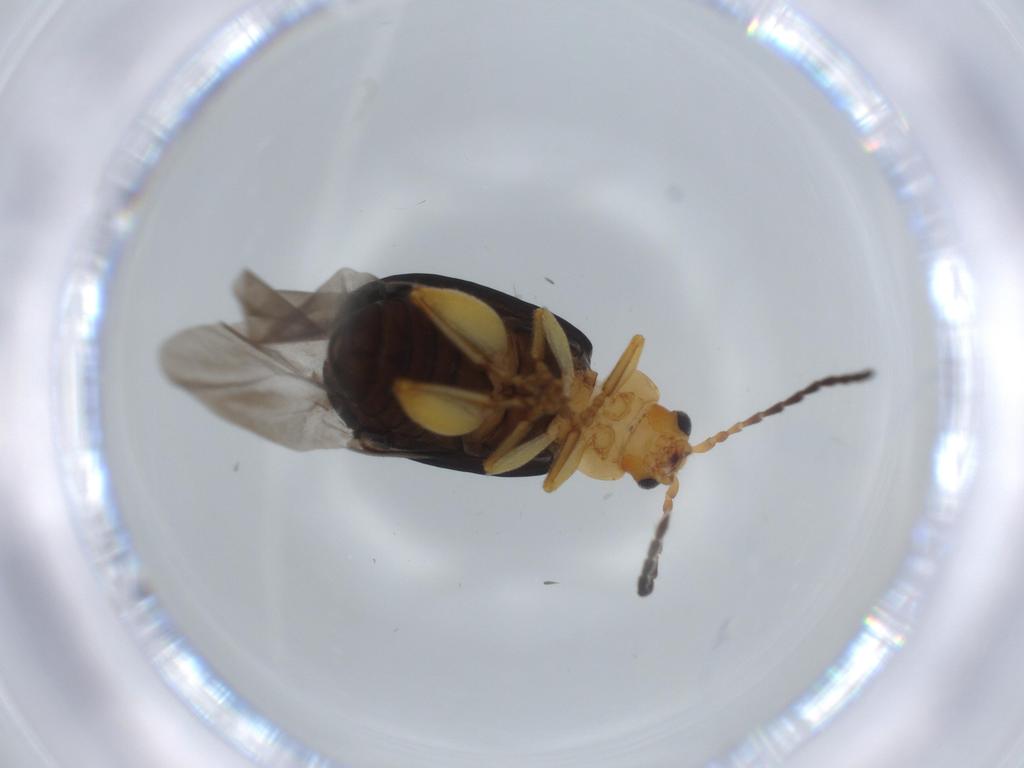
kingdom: Animalia
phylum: Arthropoda
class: Insecta
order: Coleoptera
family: Chrysomelidae
